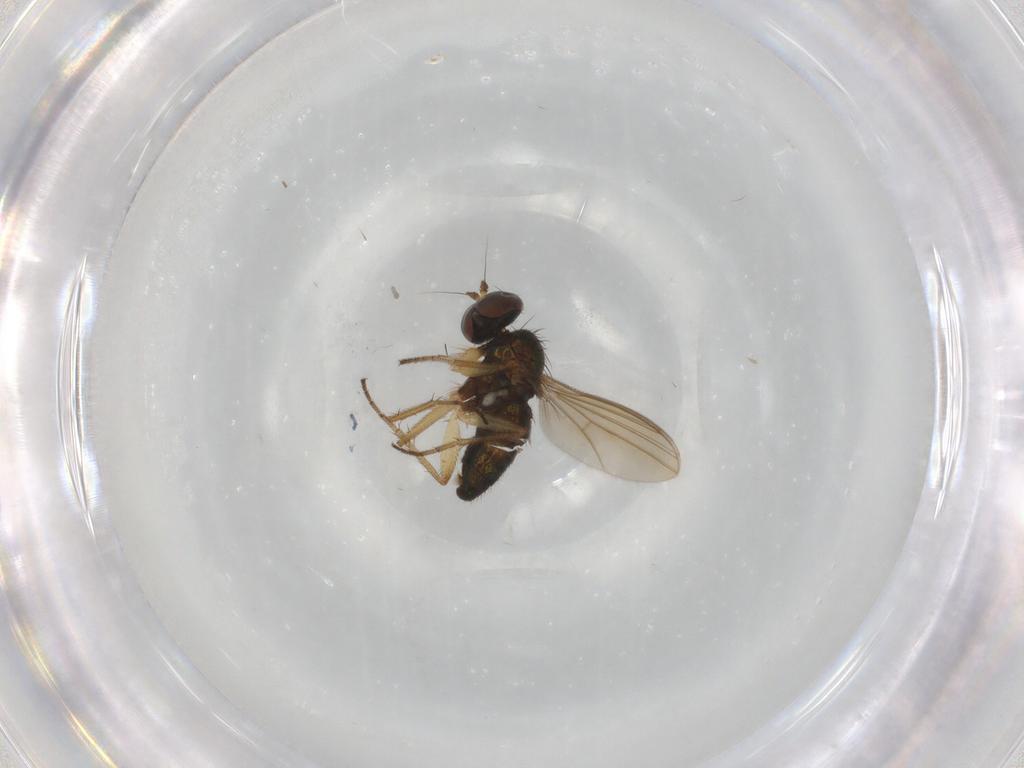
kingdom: Animalia
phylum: Arthropoda
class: Insecta
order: Diptera
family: Dolichopodidae
